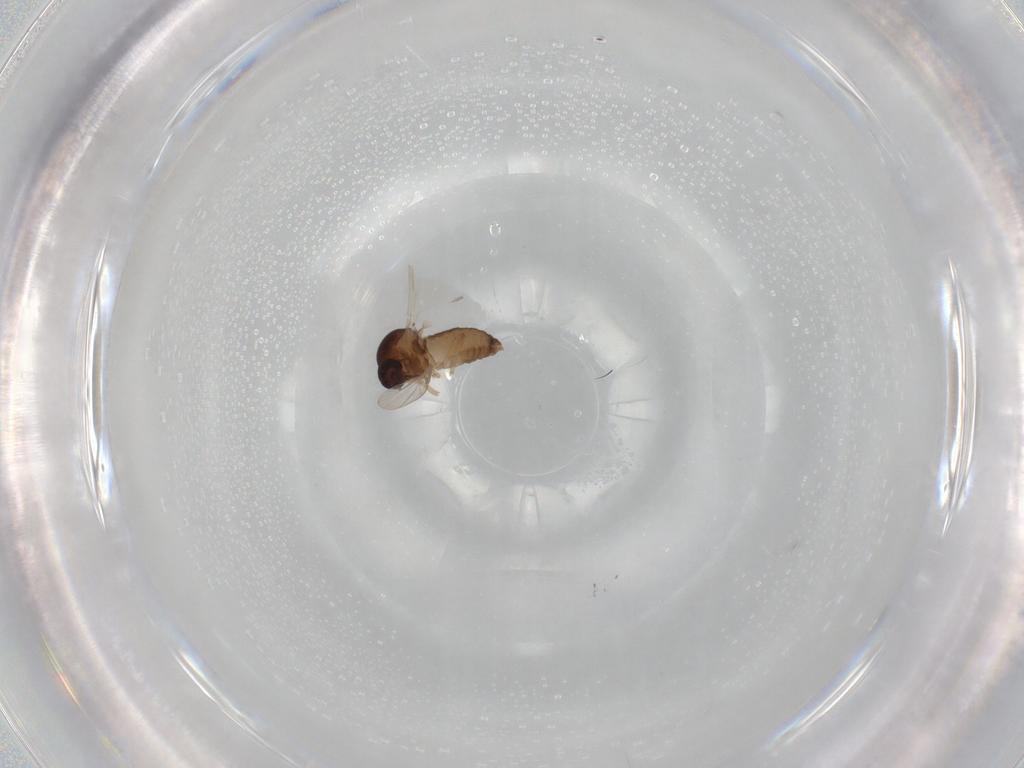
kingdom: Animalia
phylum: Arthropoda
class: Insecta
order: Diptera
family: Ceratopogonidae
